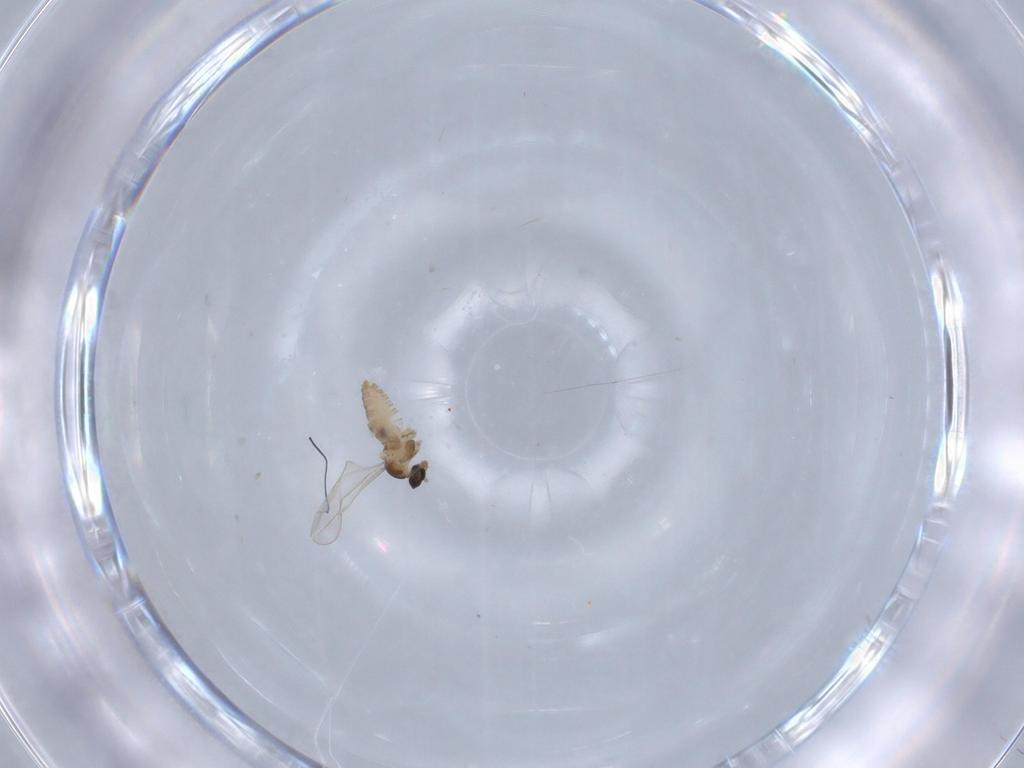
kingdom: Animalia
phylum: Arthropoda
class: Insecta
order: Diptera
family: Cecidomyiidae
